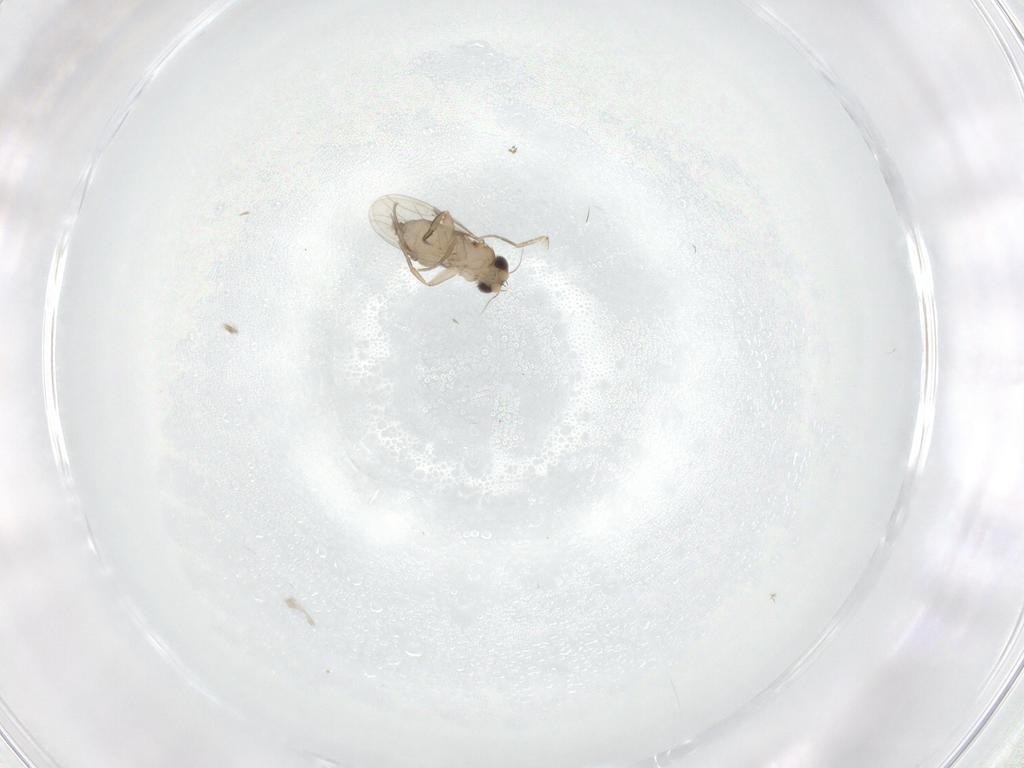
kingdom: Animalia
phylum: Arthropoda
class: Insecta
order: Diptera
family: Phoridae
